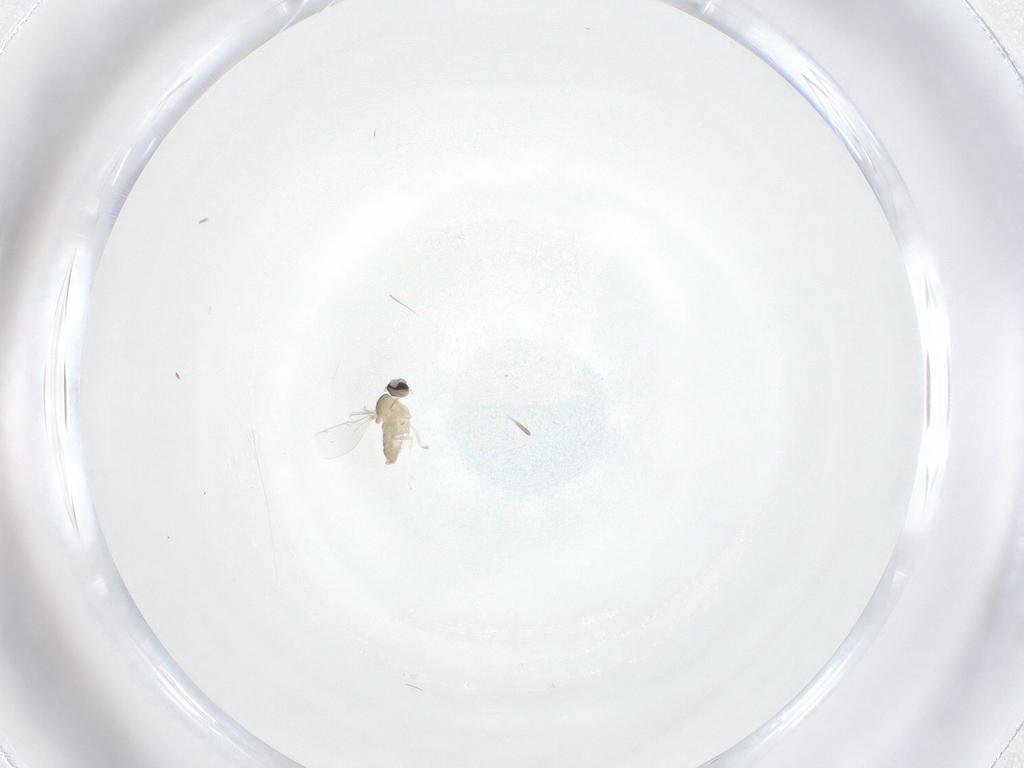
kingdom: Animalia
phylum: Arthropoda
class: Insecta
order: Diptera
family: Cecidomyiidae
